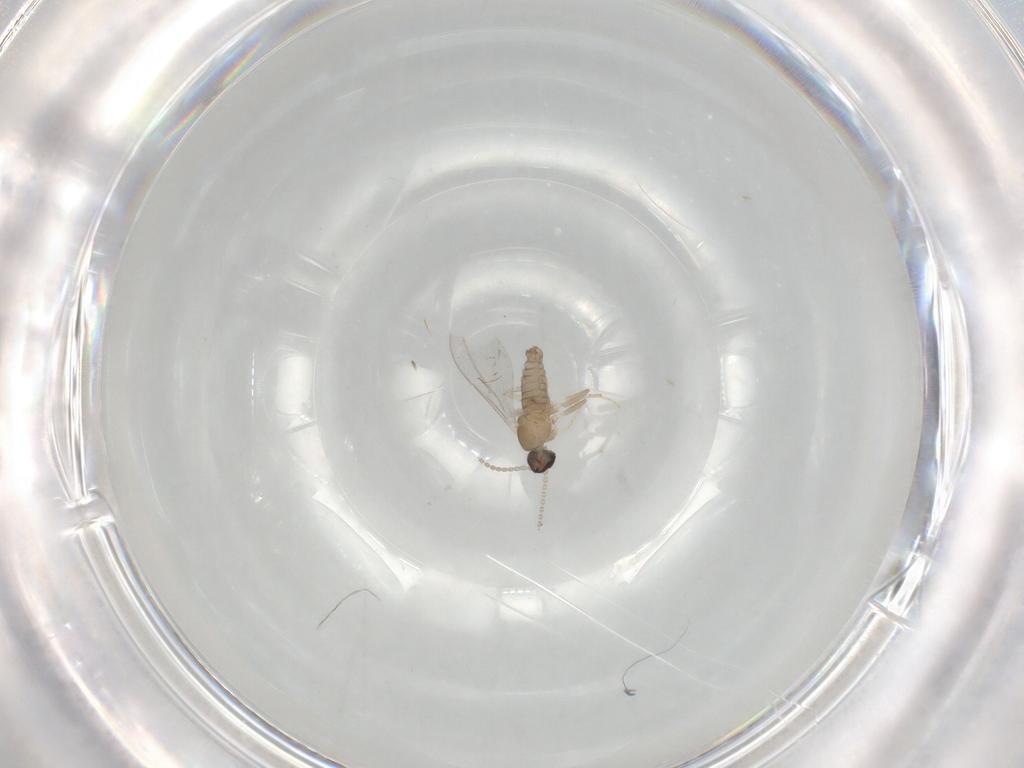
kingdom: Animalia
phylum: Arthropoda
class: Insecta
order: Diptera
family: Cecidomyiidae
